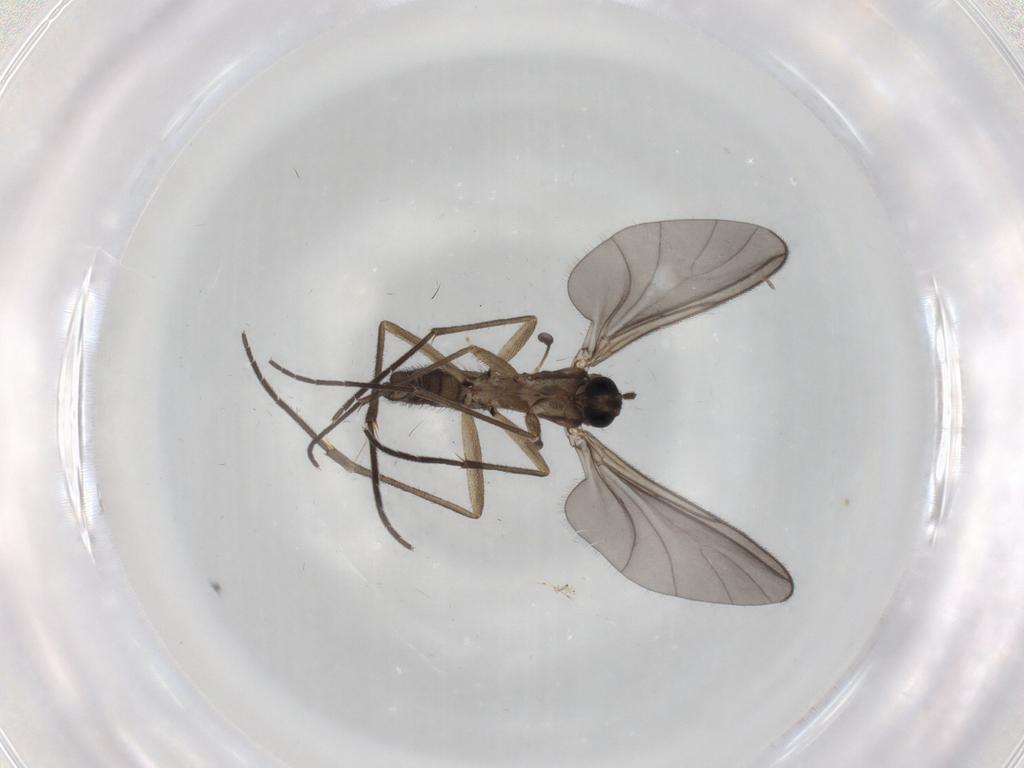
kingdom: Animalia
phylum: Arthropoda
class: Insecta
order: Diptera
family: Sciaridae
